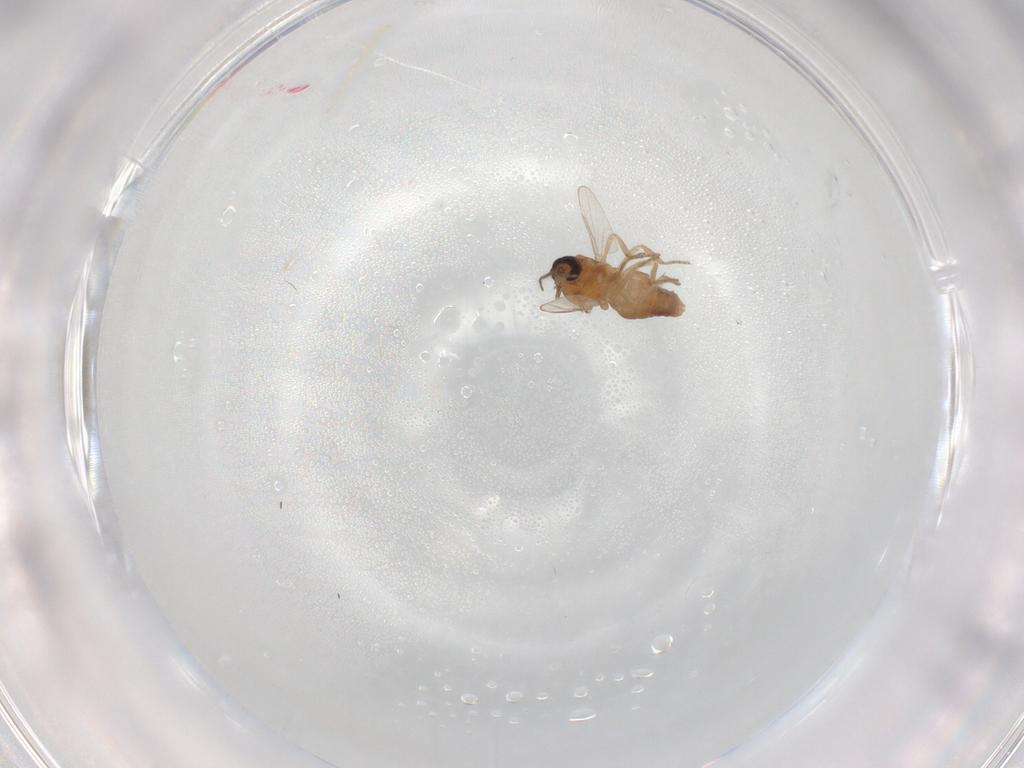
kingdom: Animalia
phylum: Arthropoda
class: Insecta
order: Diptera
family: Ceratopogonidae
